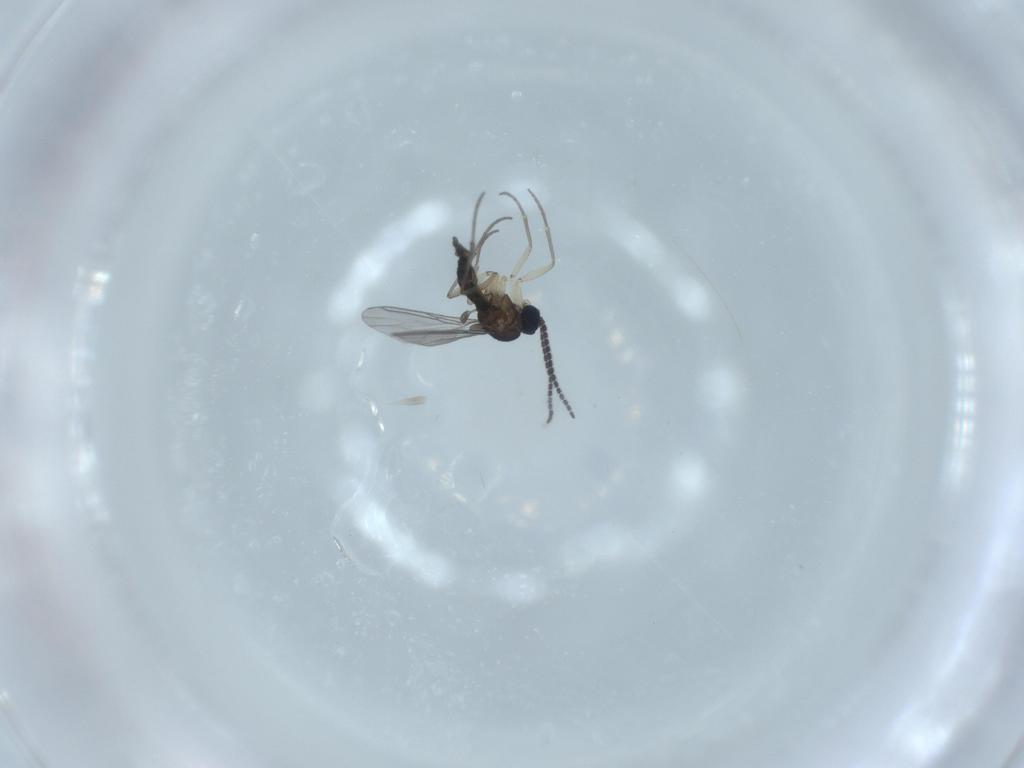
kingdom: Animalia
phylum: Arthropoda
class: Insecta
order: Diptera
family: Sciaridae
